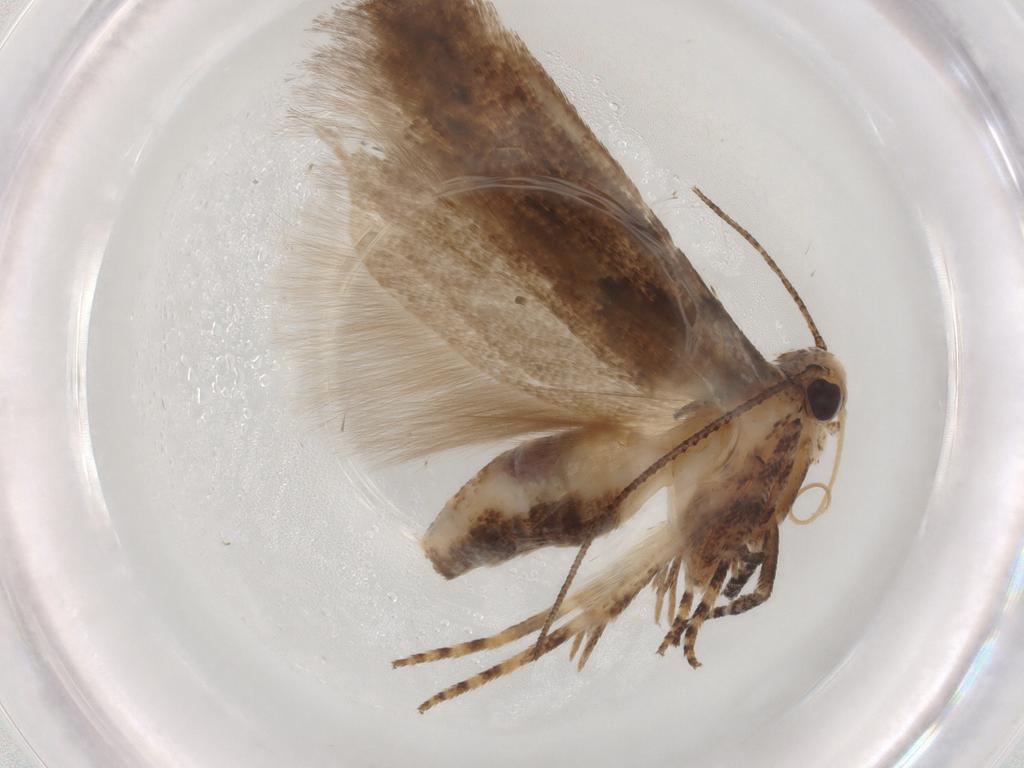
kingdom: Animalia
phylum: Arthropoda
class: Insecta
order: Lepidoptera
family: Gelechiidae
